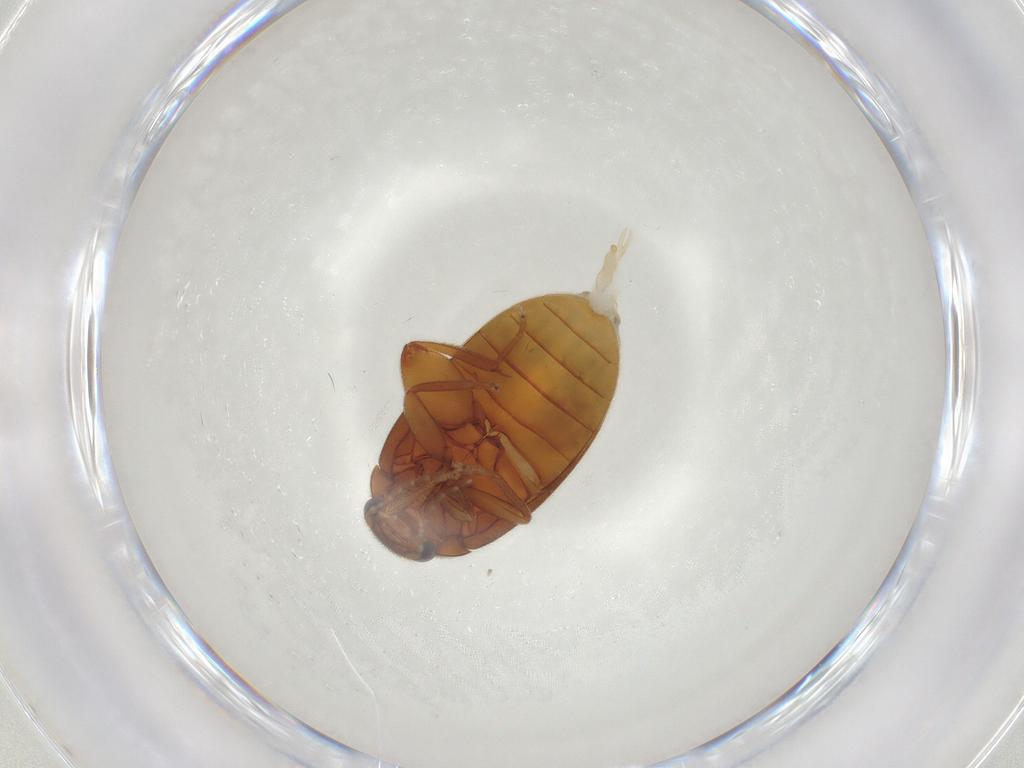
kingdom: Animalia
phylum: Arthropoda
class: Insecta
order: Coleoptera
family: Scirtidae
